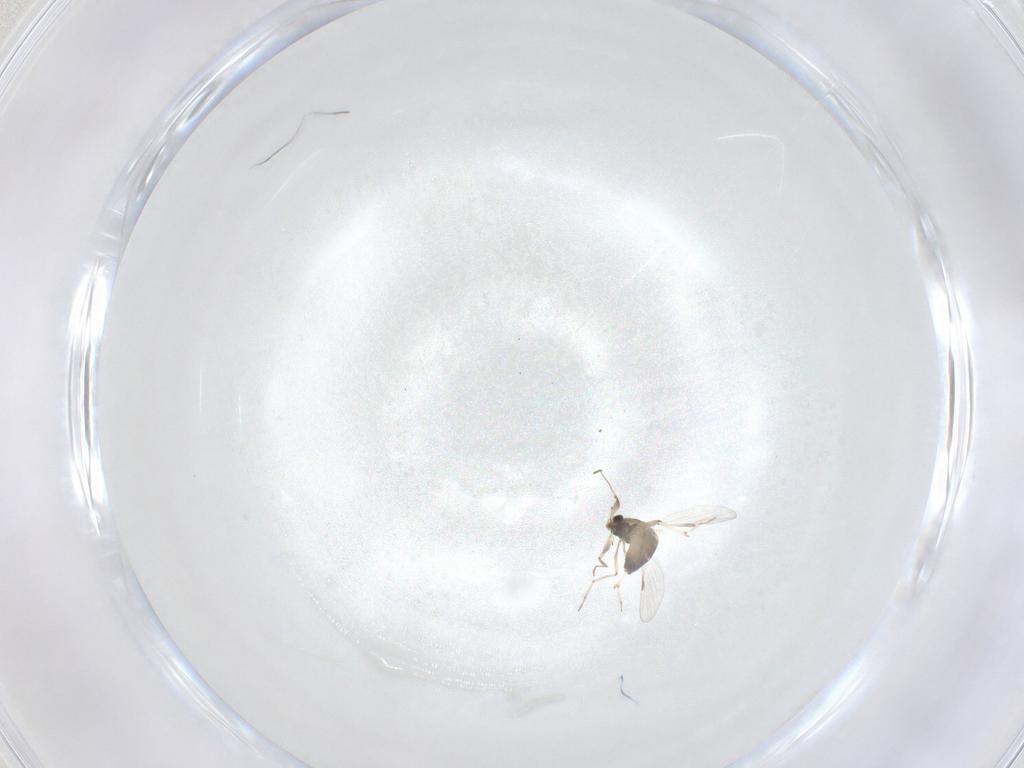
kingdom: Animalia
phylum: Arthropoda
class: Insecta
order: Diptera
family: Chironomidae
